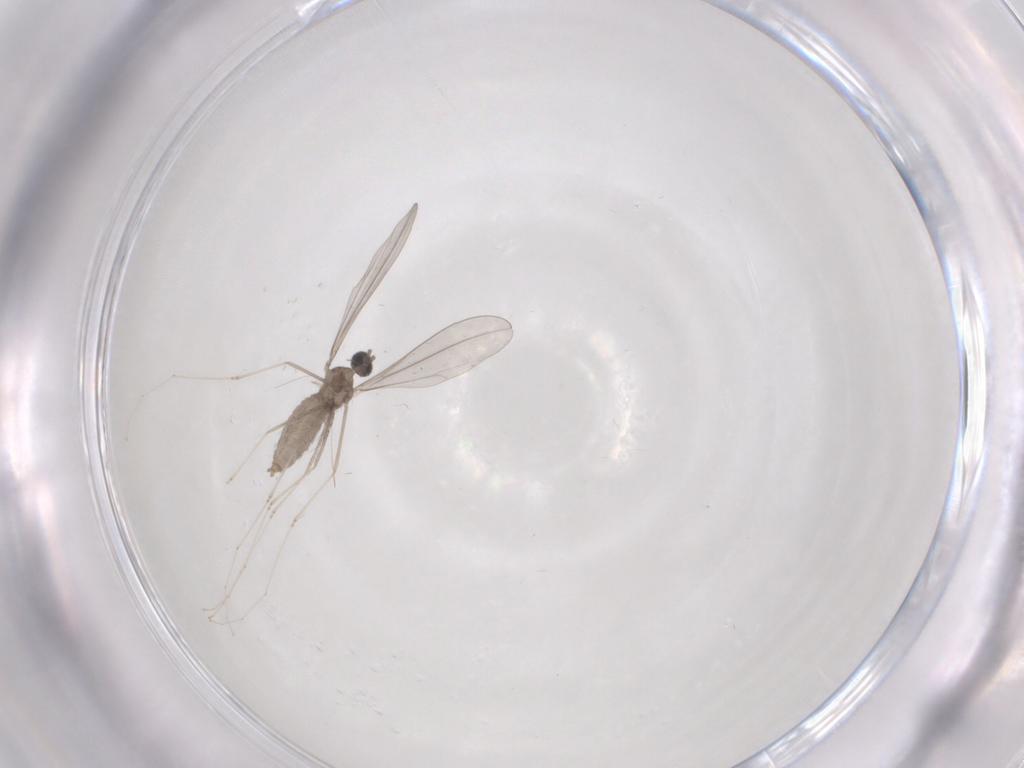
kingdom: Animalia
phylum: Arthropoda
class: Insecta
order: Diptera
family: Cecidomyiidae
